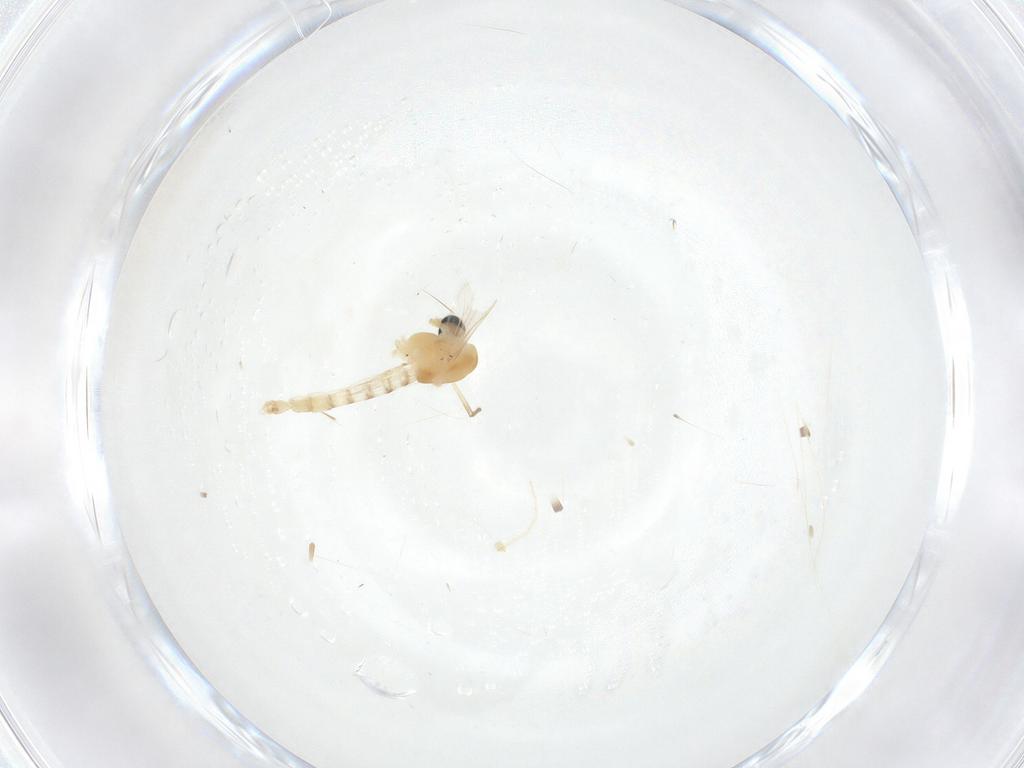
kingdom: Animalia
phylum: Arthropoda
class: Insecta
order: Diptera
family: Chironomidae
